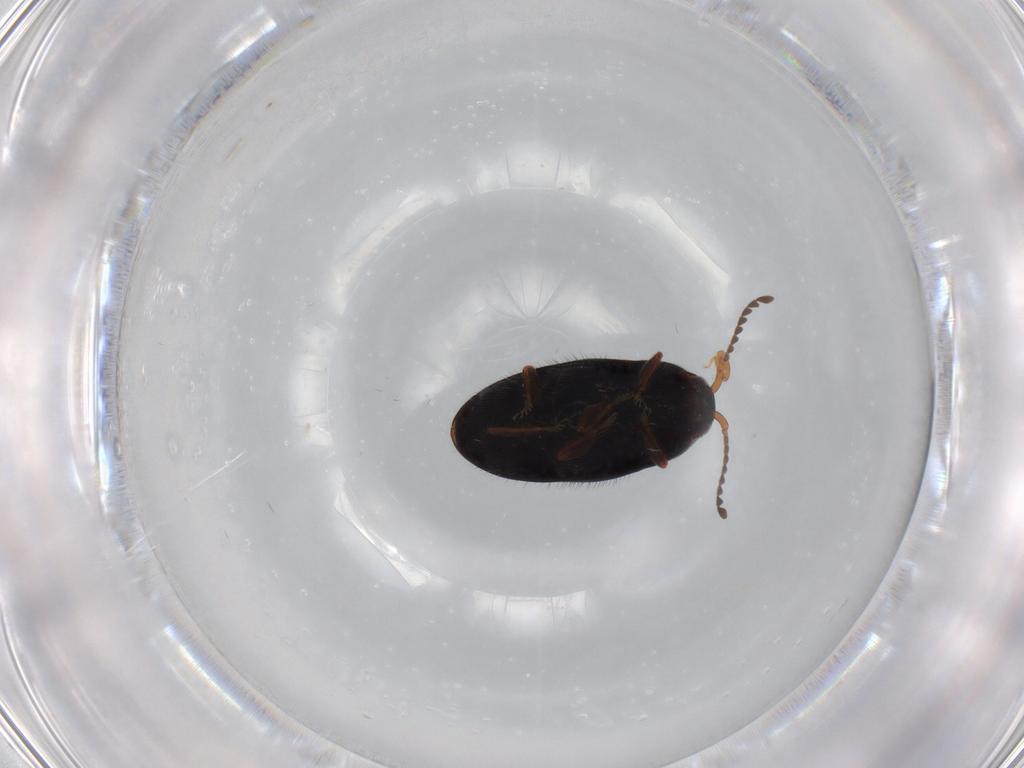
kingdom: Animalia
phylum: Arthropoda
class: Insecta
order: Coleoptera
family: Elateridae
